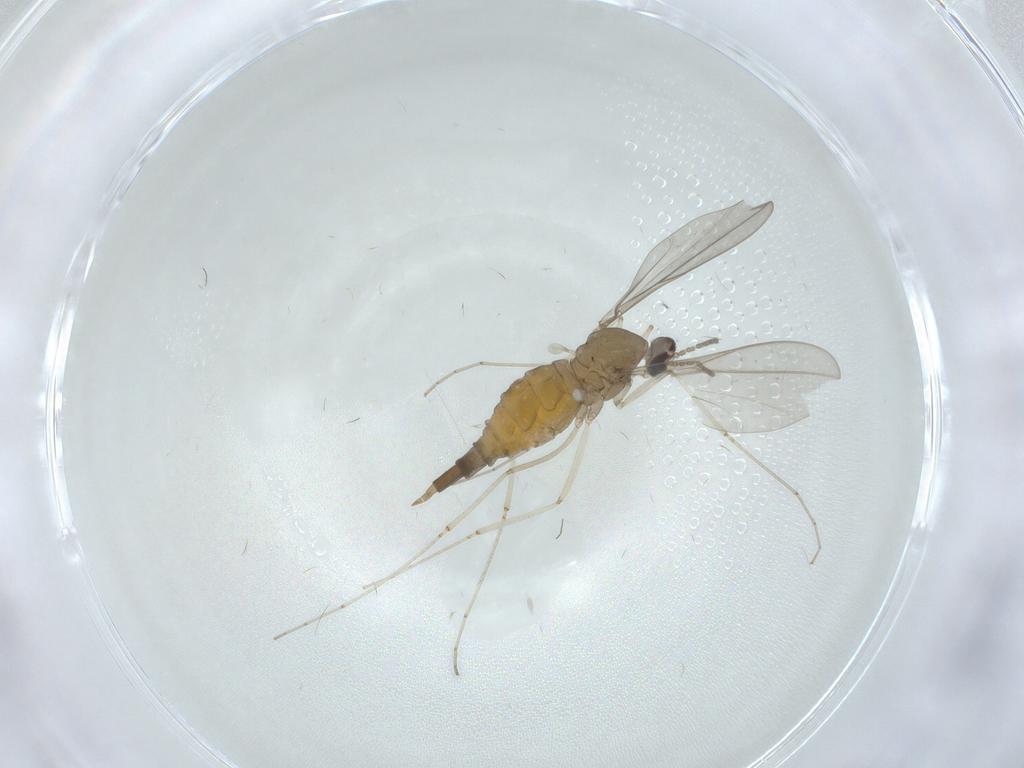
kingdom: Animalia
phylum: Arthropoda
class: Insecta
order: Diptera
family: Cecidomyiidae
